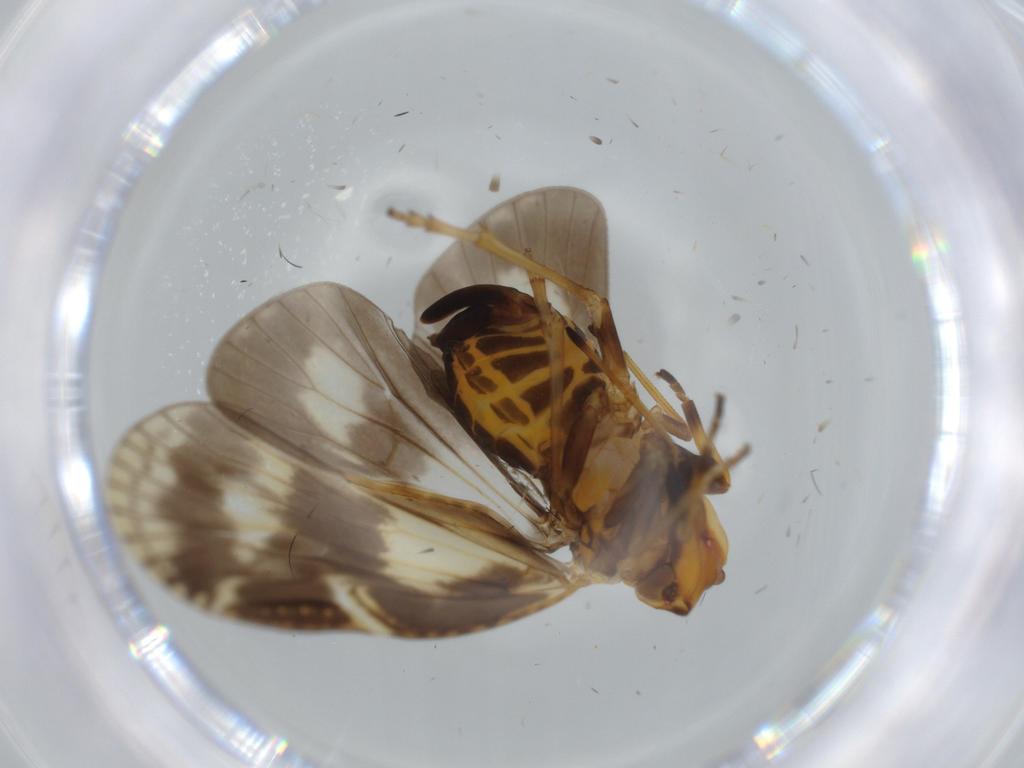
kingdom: Animalia
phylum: Arthropoda
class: Insecta
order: Hemiptera
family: Cixiidae
